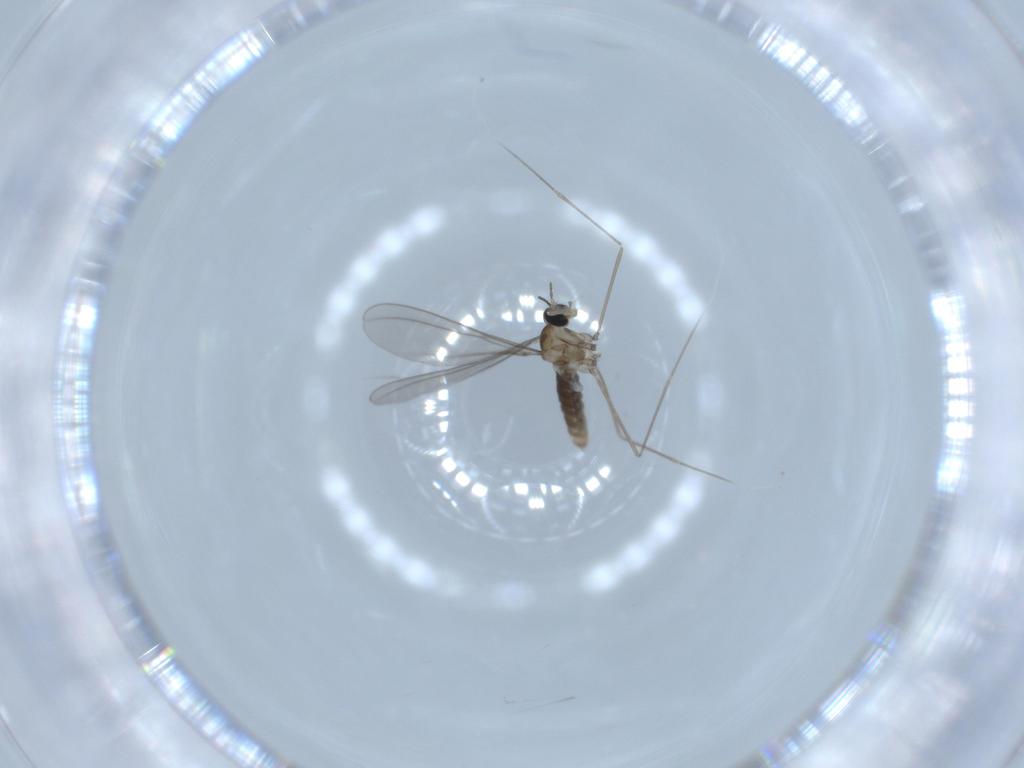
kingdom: Animalia
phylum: Arthropoda
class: Insecta
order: Diptera
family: Cecidomyiidae
